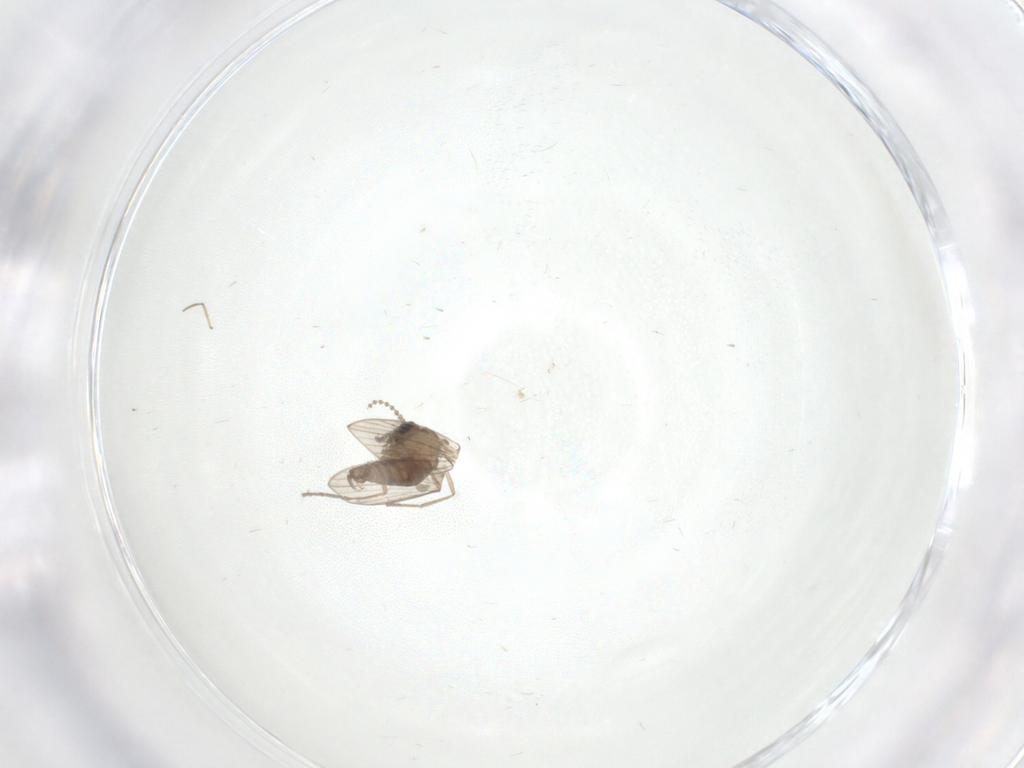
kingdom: Animalia
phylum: Arthropoda
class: Insecta
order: Diptera
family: Psychodidae
